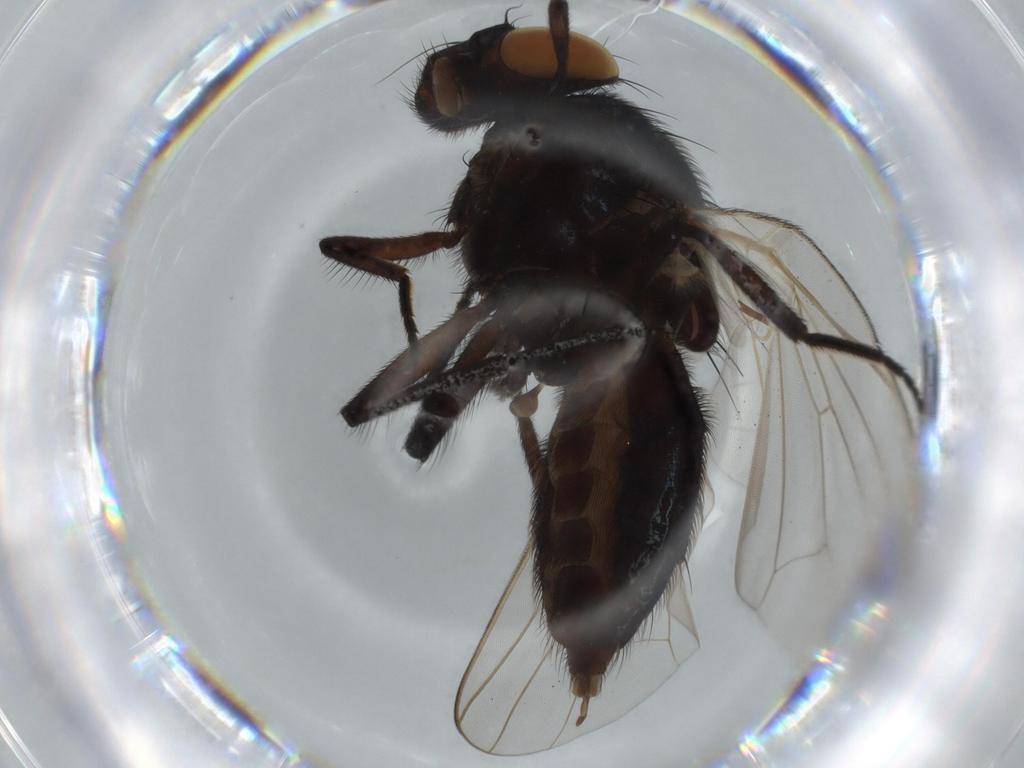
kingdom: Animalia
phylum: Arthropoda
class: Insecta
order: Diptera
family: Lonchaeidae
